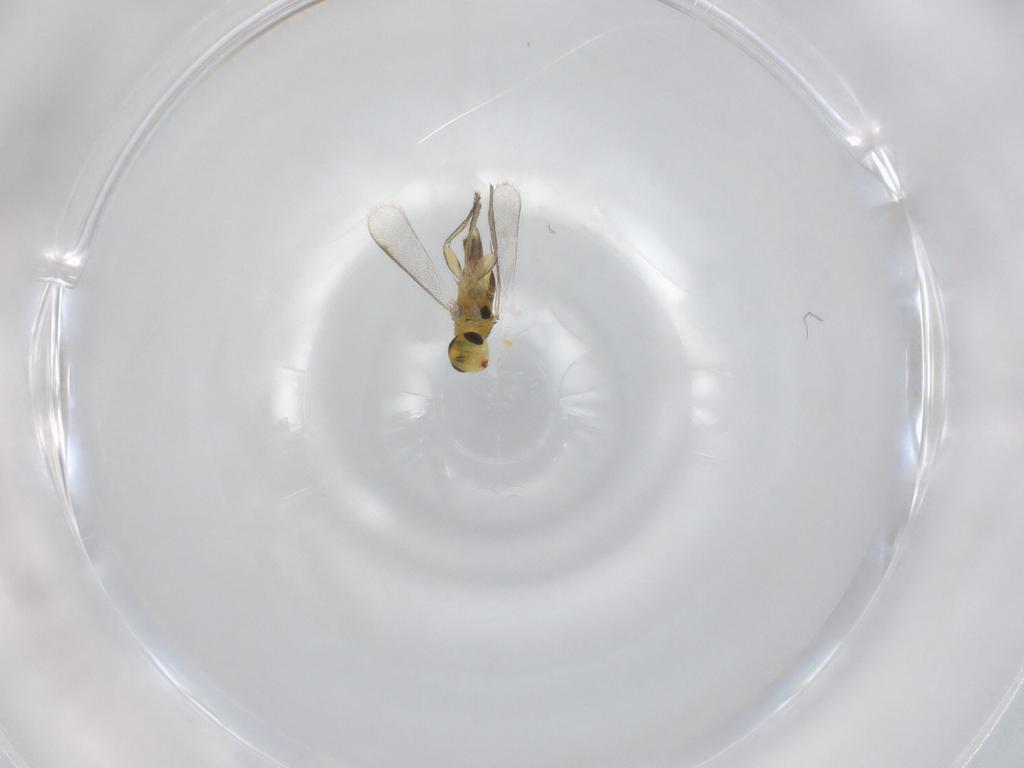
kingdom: Animalia
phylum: Arthropoda
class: Insecta
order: Hymenoptera
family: Eulophidae
